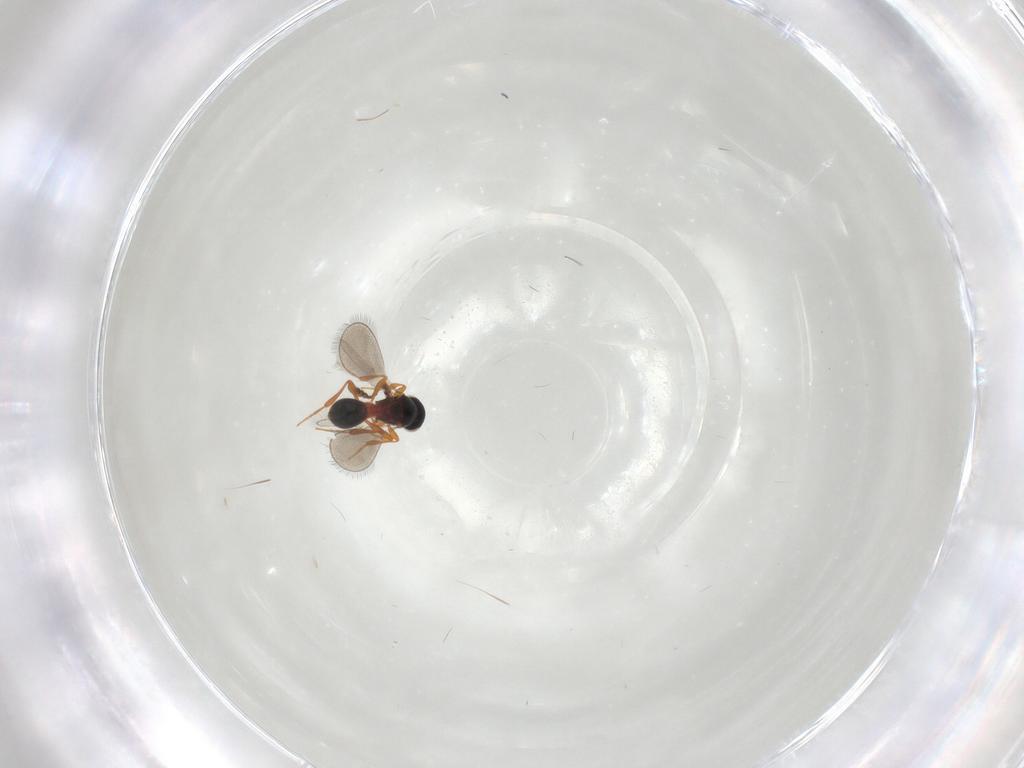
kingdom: Animalia
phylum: Arthropoda
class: Insecta
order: Hymenoptera
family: Platygastridae
